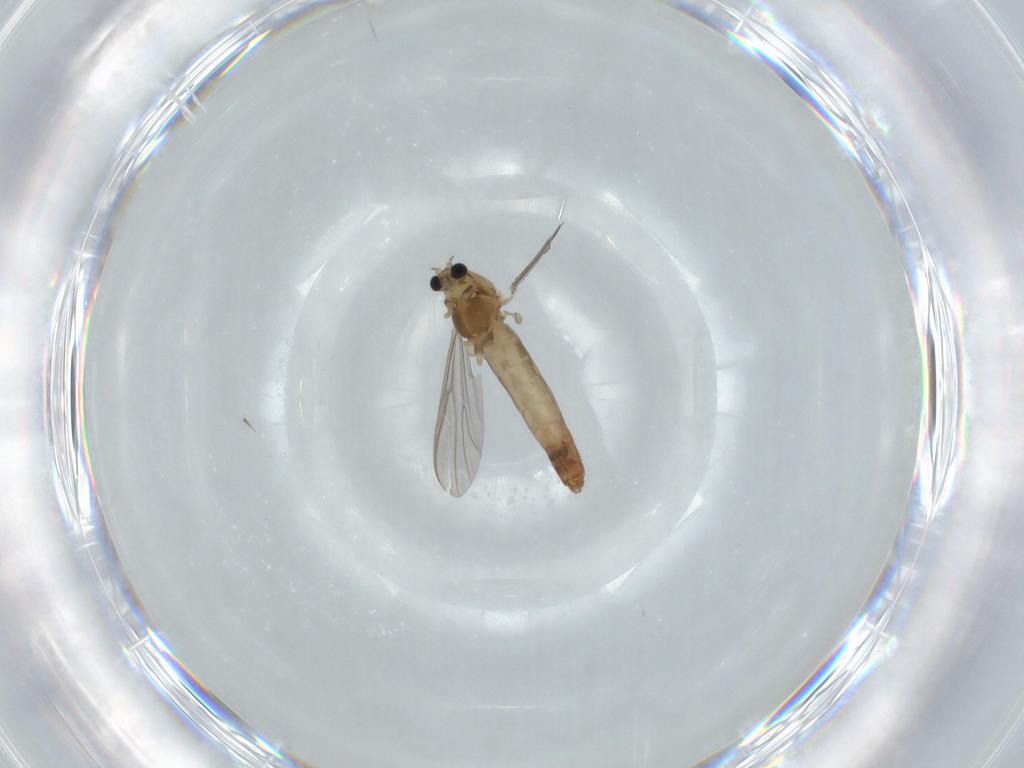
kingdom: Animalia
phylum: Arthropoda
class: Insecta
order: Diptera
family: Chironomidae
